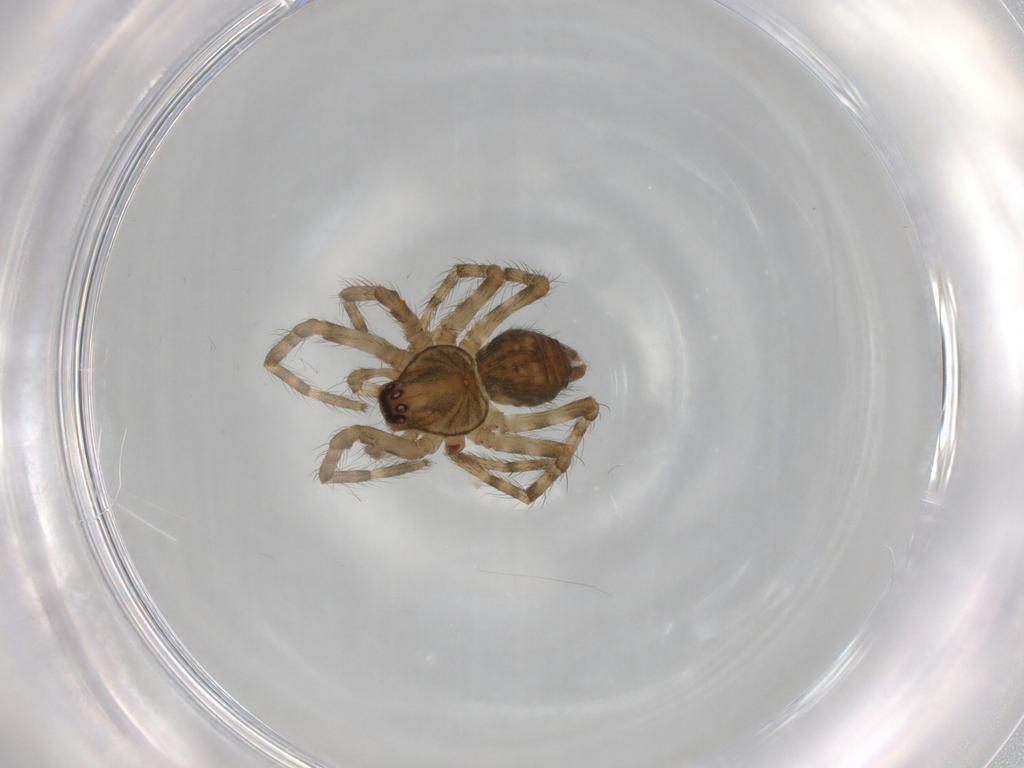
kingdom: Animalia
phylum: Arthropoda
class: Arachnida
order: Araneae
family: Agelenidae
